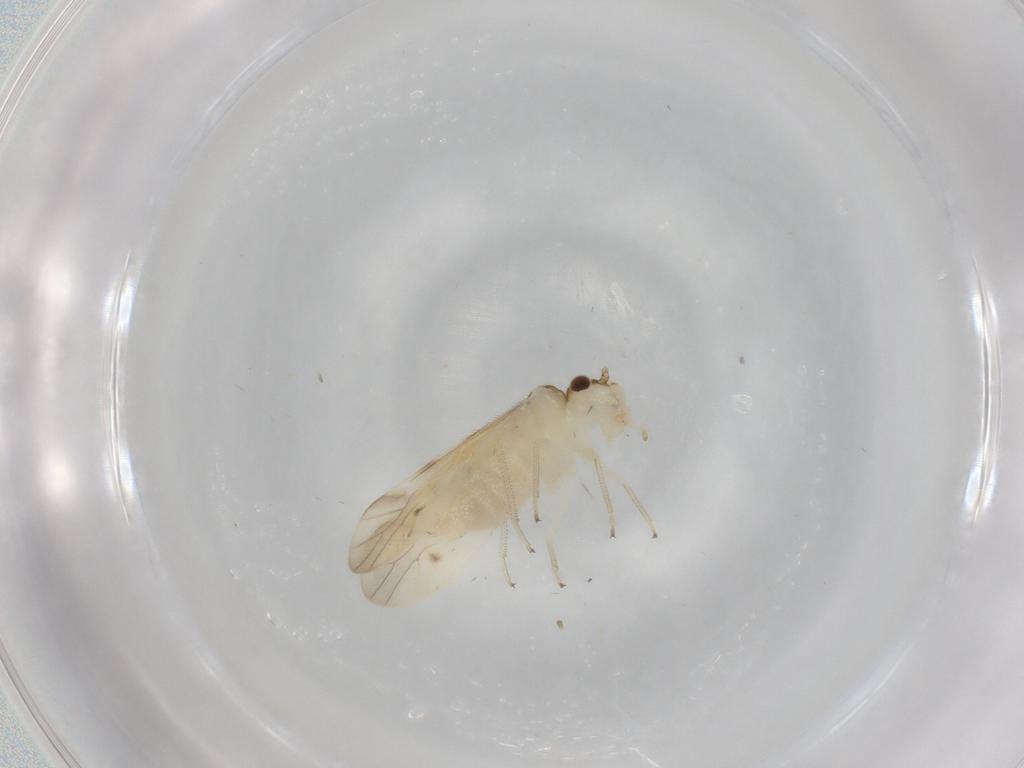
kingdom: Animalia
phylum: Arthropoda
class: Insecta
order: Psocodea
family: Caeciliusidae
